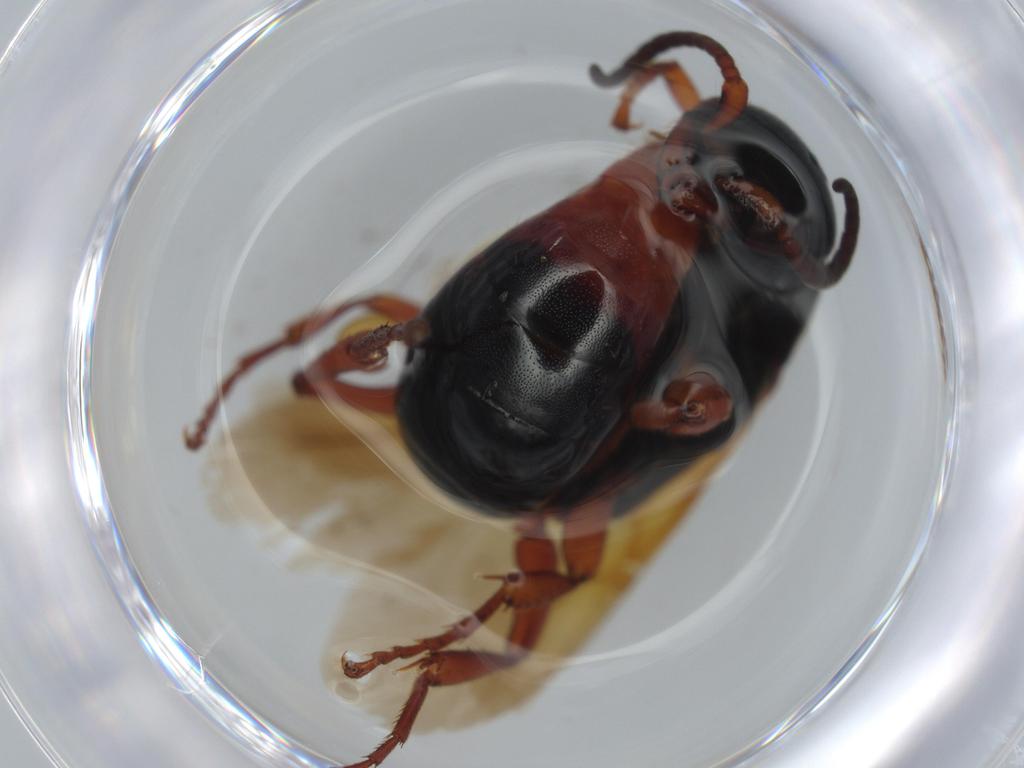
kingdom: Animalia
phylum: Arthropoda
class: Insecta
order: Hymenoptera
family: Bethylidae
